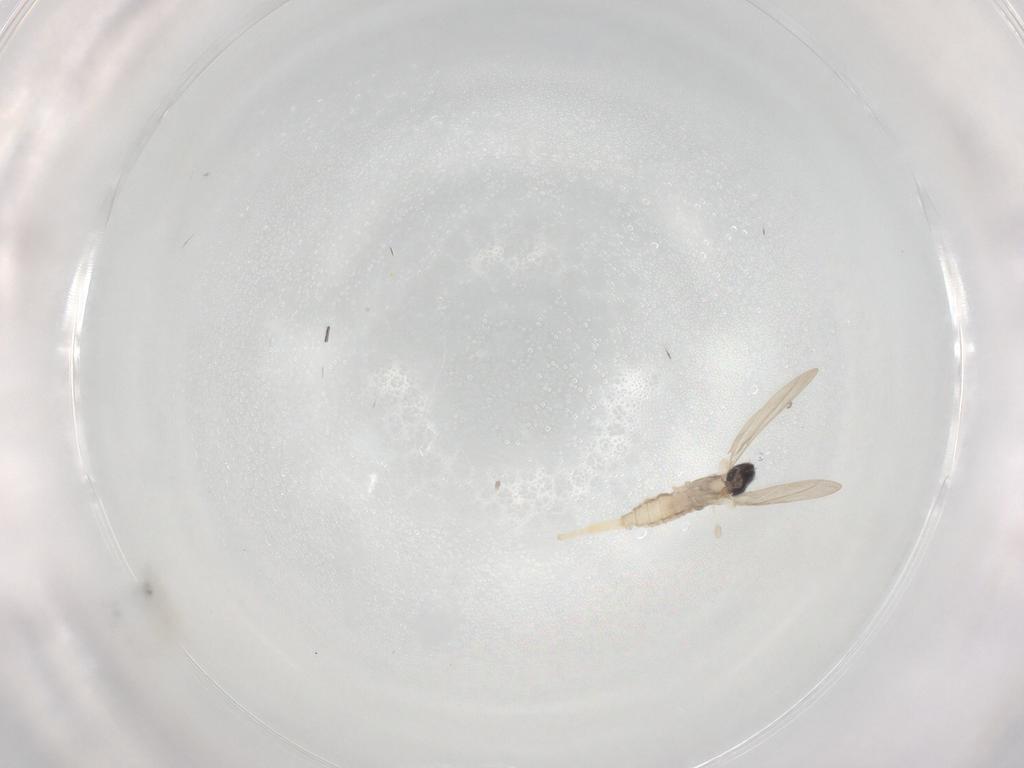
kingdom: Animalia
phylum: Arthropoda
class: Insecta
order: Diptera
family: Cecidomyiidae
